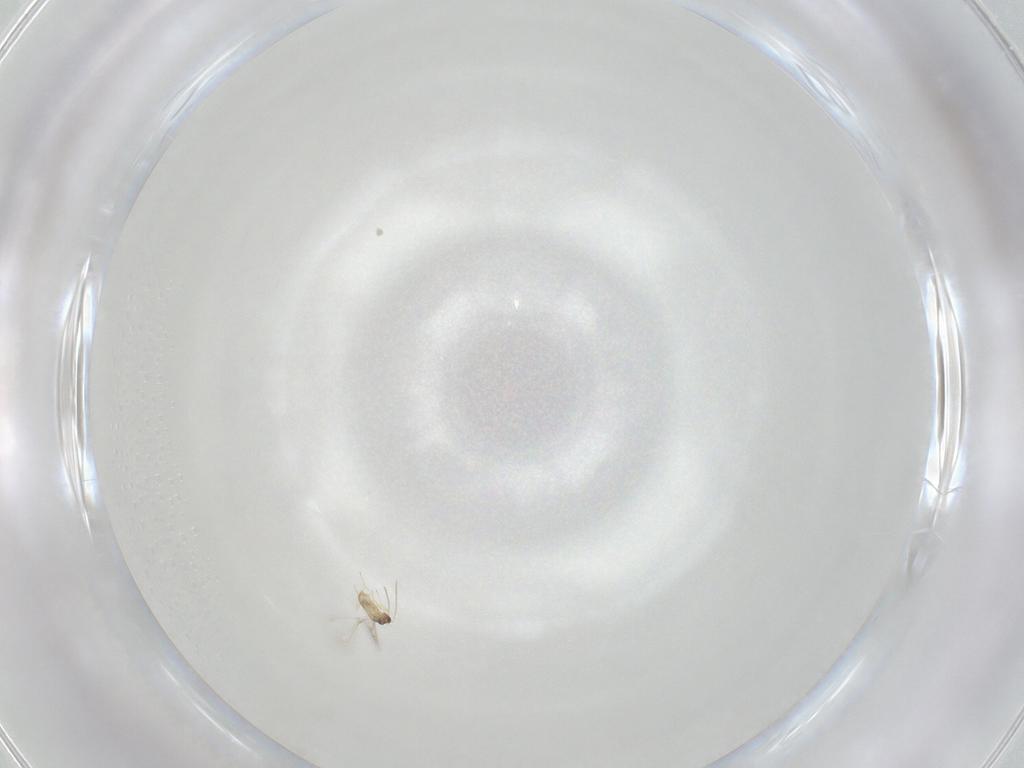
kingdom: Animalia
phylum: Arthropoda
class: Insecta
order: Hymenoptera
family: Mymaridae
